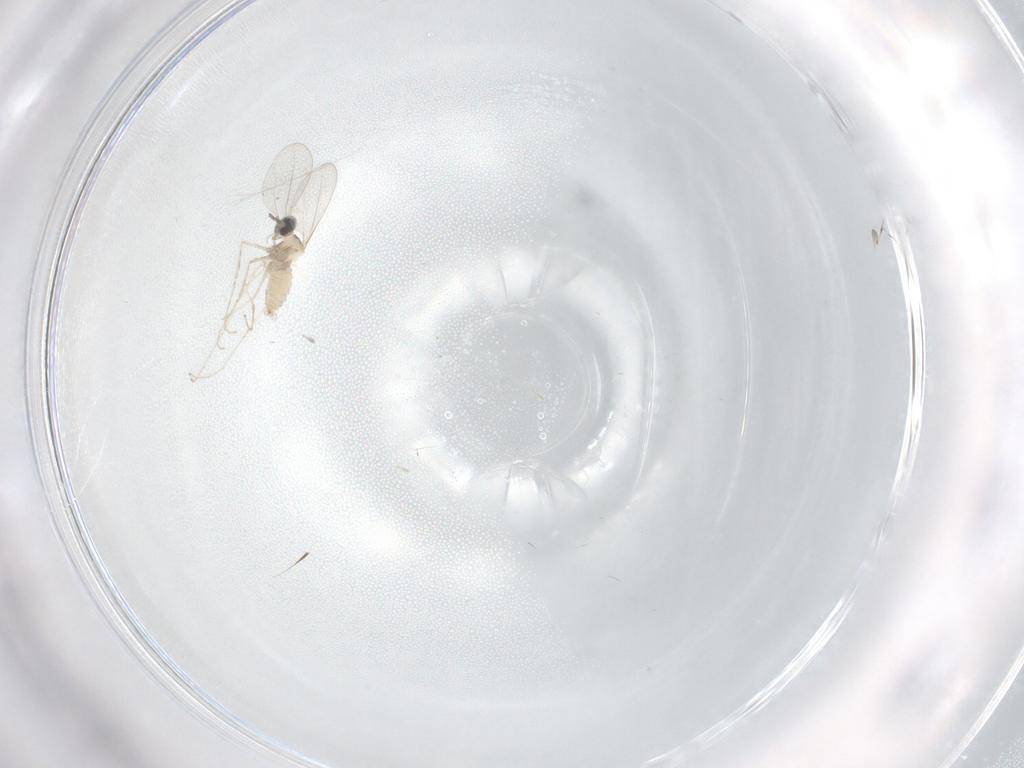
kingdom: Animalia
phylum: Arthropoda
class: Insecta
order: Diptera
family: Cecidomyiidae
